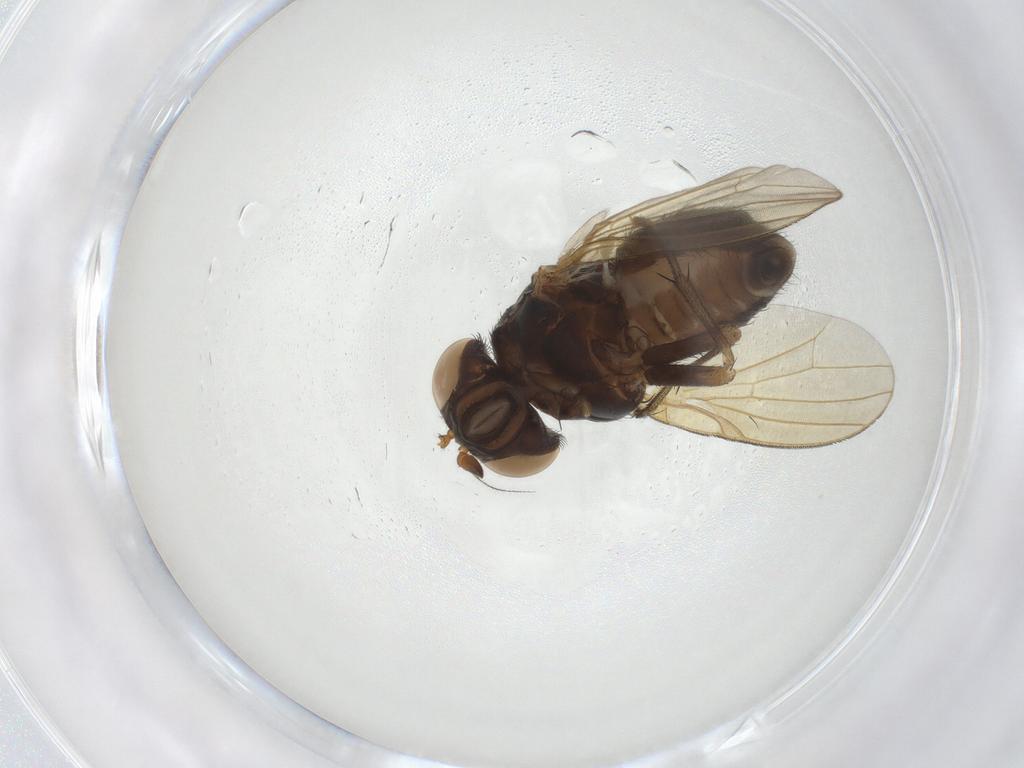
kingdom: Animalia
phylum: Arthropoda
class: Insecta
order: Diptera
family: Lauxaniidae
